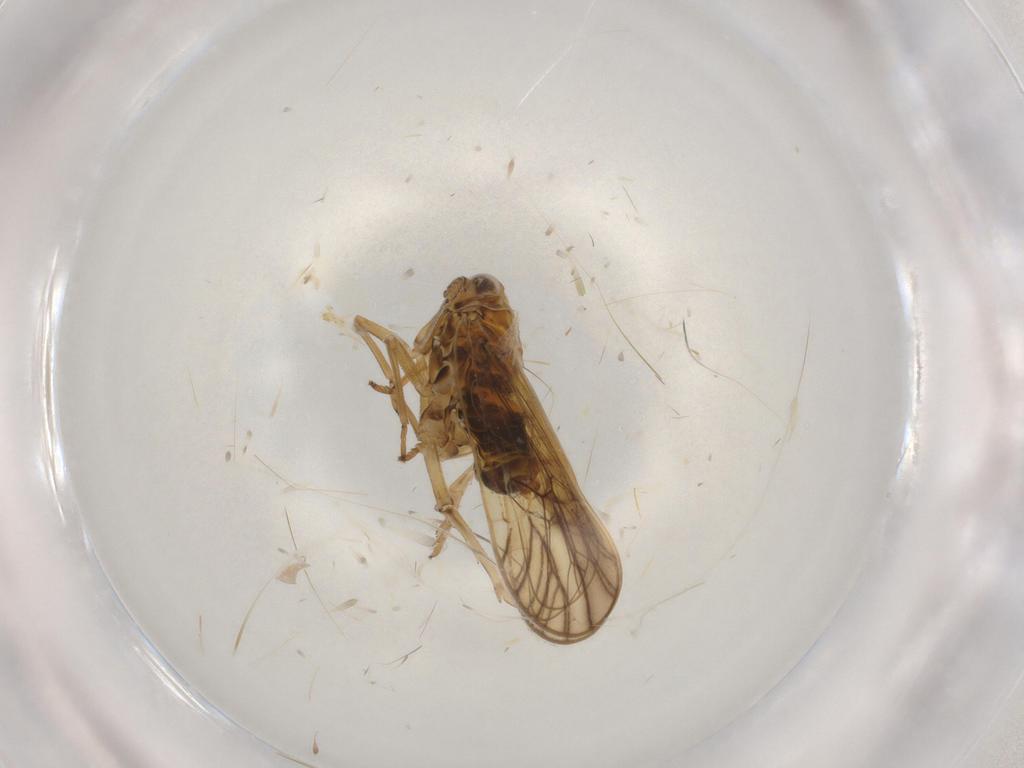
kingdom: Animalia
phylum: Arthropoda
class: Insecta
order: Hemiptera
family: Delphacidae
